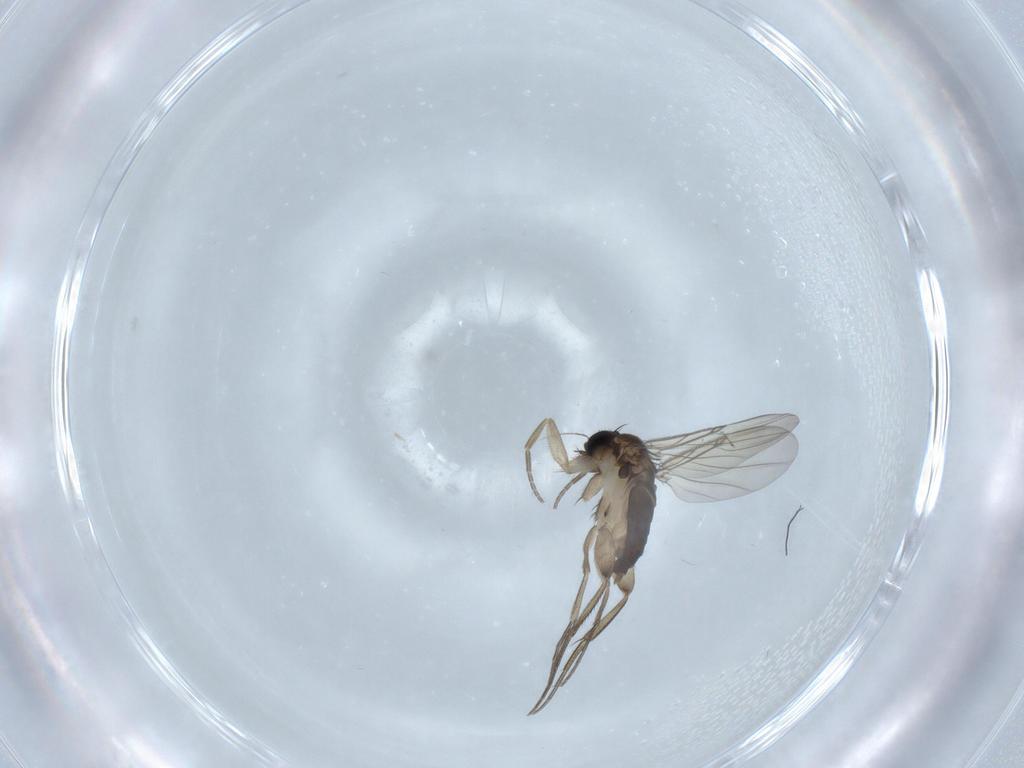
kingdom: Animalia
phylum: Arthropoda
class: Insecta
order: Diptera
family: Phoridae
